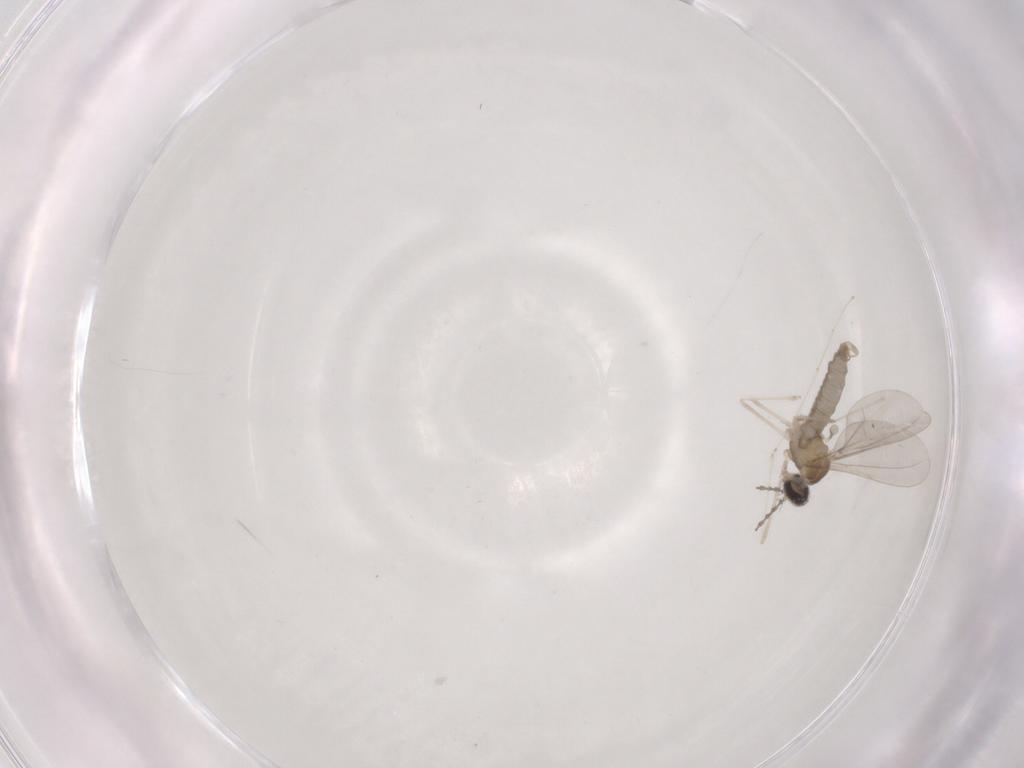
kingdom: Animalia
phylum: Arthropoda
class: Insecta
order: Diptera
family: Cecidomyiidae
